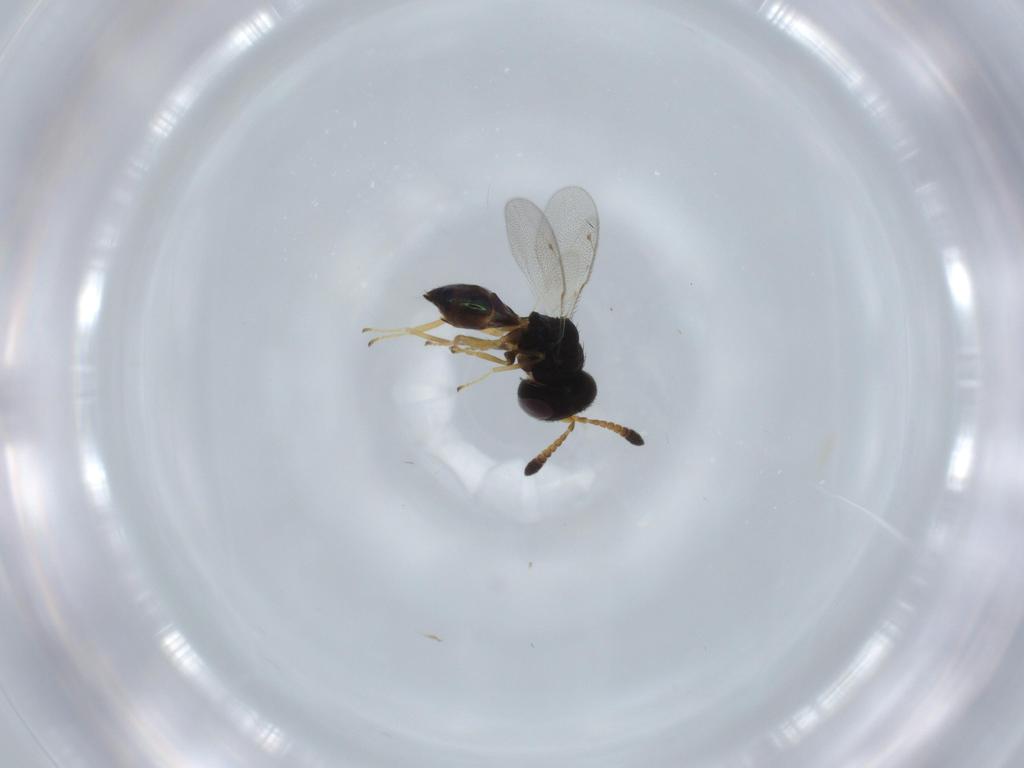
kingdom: Animalia
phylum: Arthropoda
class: Insecta
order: Hymenoptera
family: Pteromalidae
